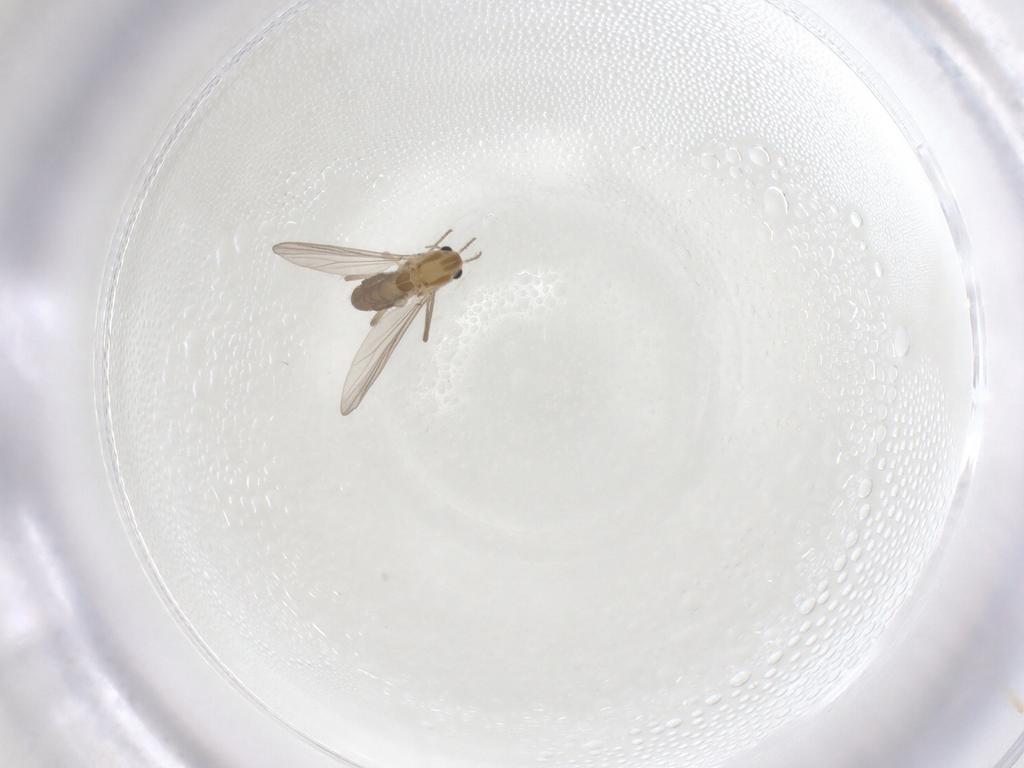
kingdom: Animalia
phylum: Arthropoda
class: Insecta
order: Diptera
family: Chironomidae
